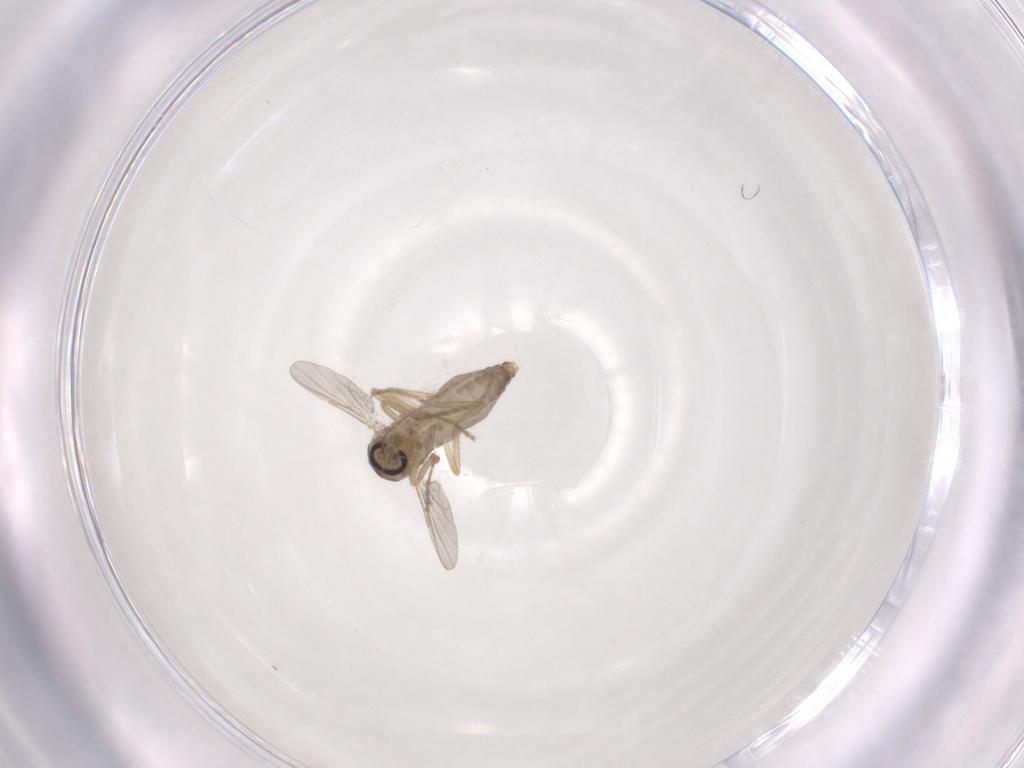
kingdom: Animalia
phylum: Arthropoda
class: Insecta
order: Diptera
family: Ceratopogonidae
